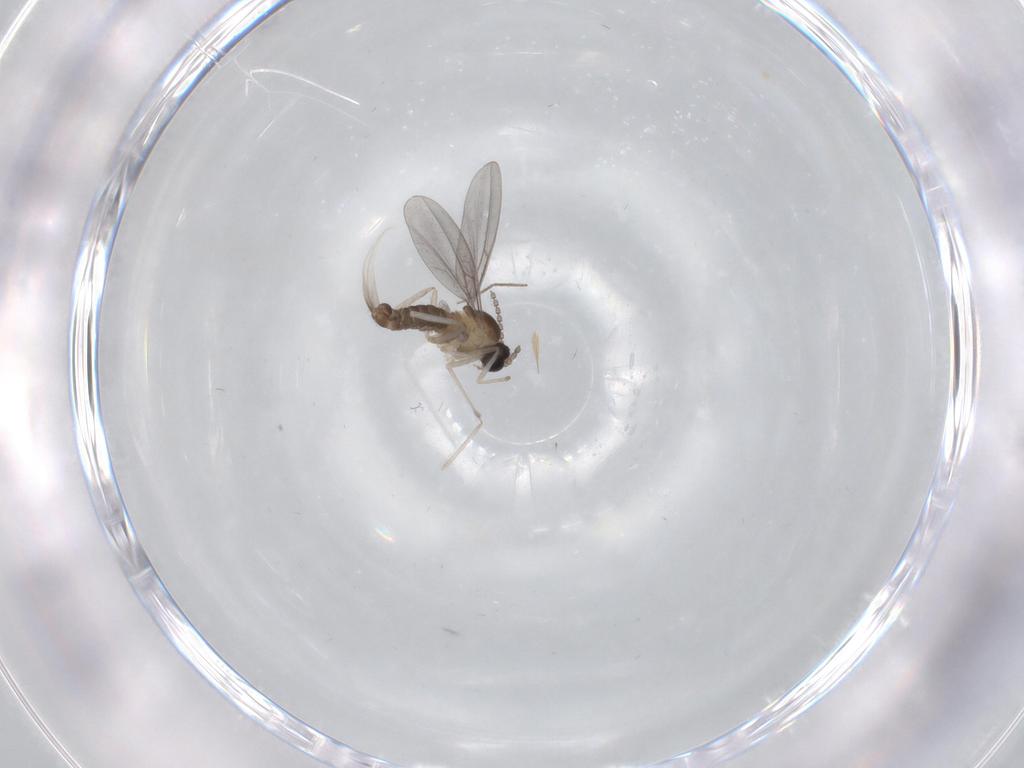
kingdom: Animalia
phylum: Arthropoda
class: Insecta
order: Diptera
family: Cecidomyiidae
